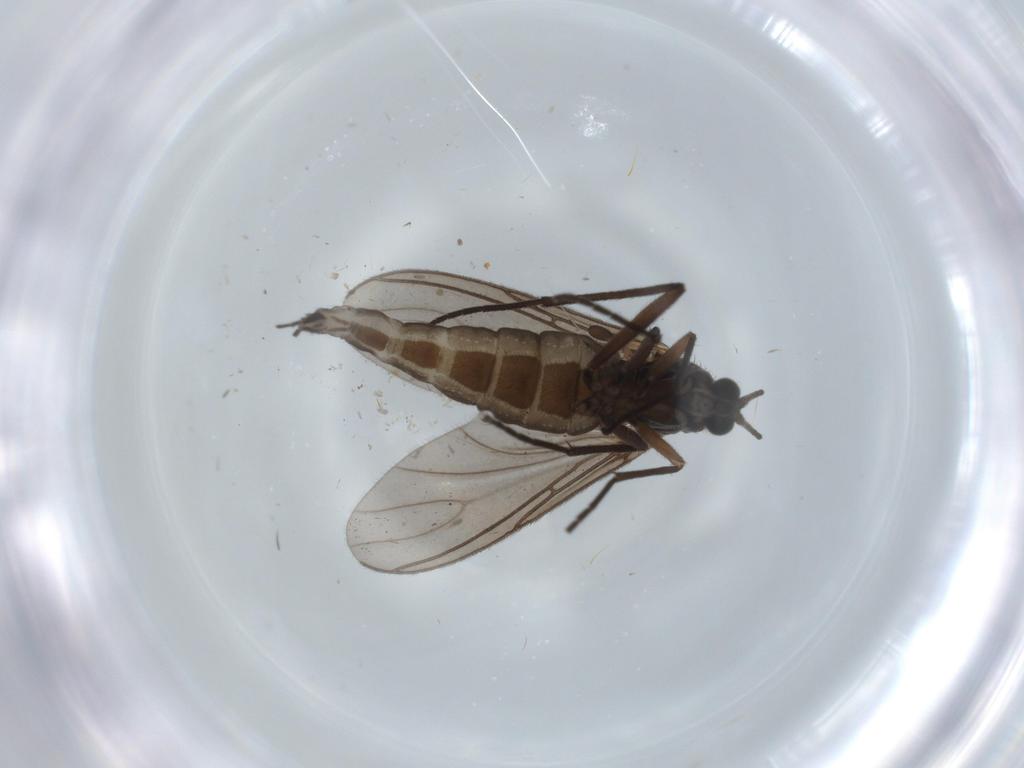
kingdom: Animalia
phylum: Arthropoda
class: Insecta
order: Diptera
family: Sciaridae
